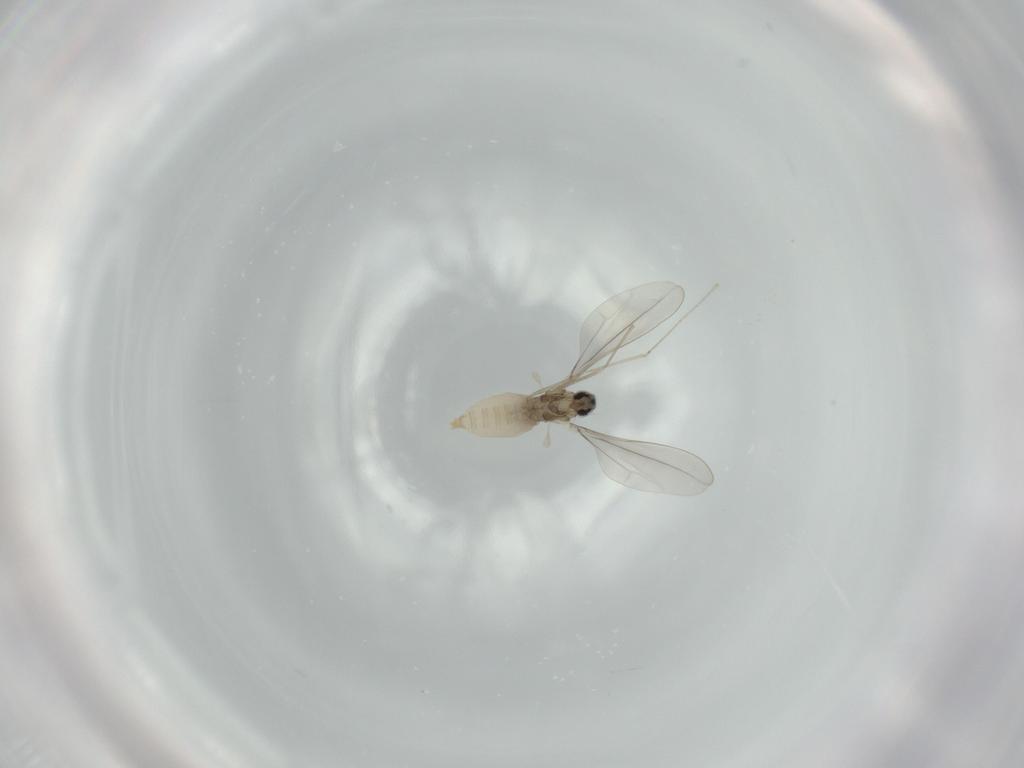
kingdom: Animalia
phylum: Arthropoda
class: Insecta
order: Diptera
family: Cecidomyiidae
